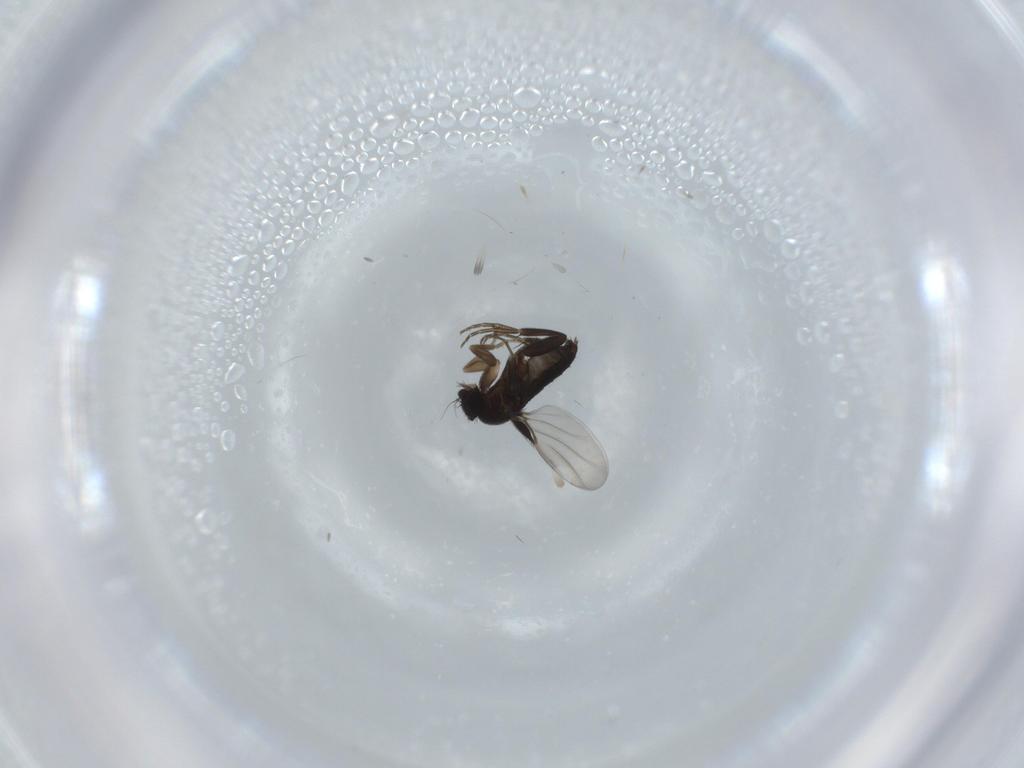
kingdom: Animalia
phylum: Arthropoda
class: Insecta
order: Diptera
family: Phoridae
